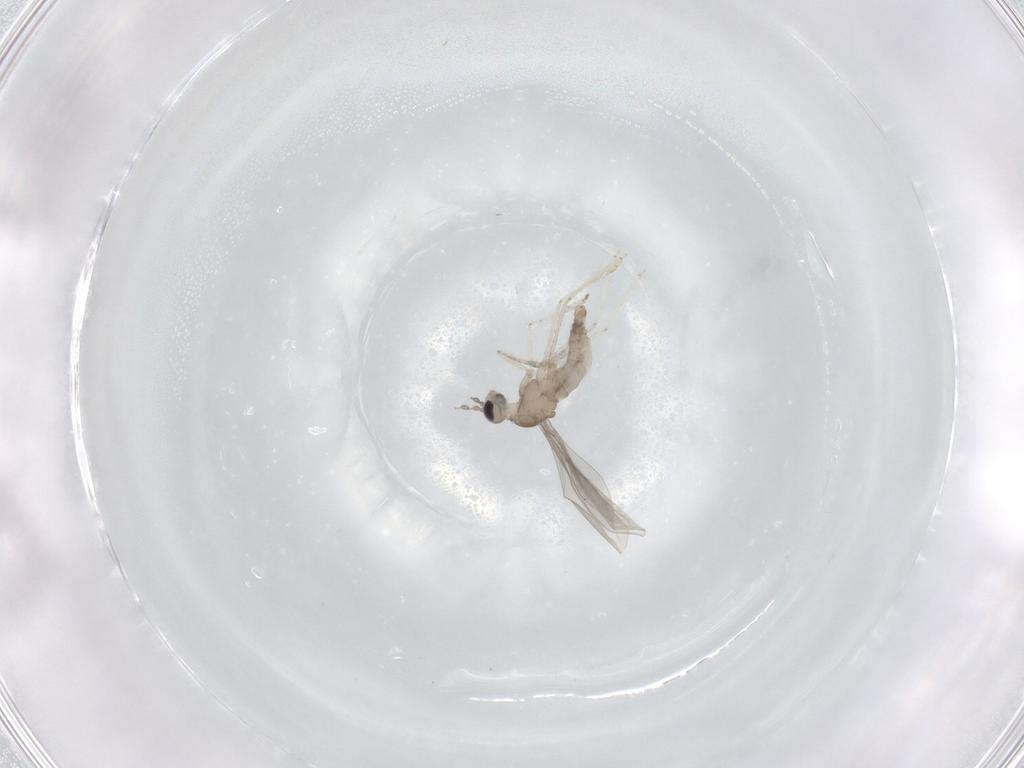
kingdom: Animalia
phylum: Arthropoda
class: Insecta
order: Diptera
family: Cecidomyiidae
